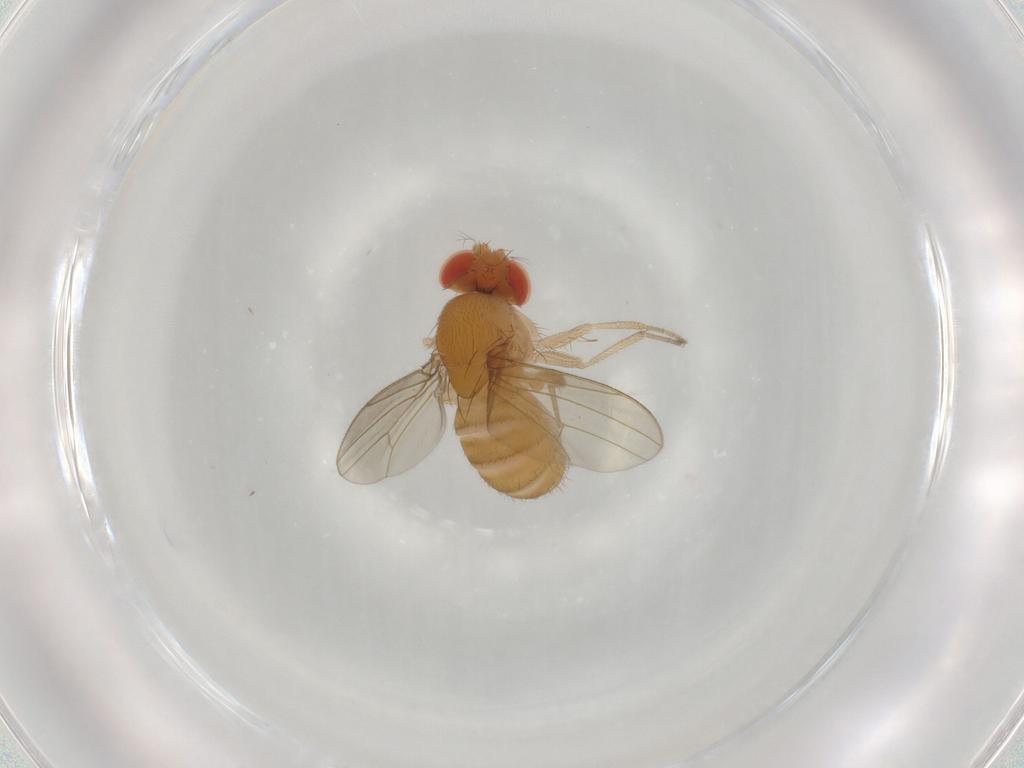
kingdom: Animalia
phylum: Arthropoda
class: Insecta
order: Diptera
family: Drosophilidae
